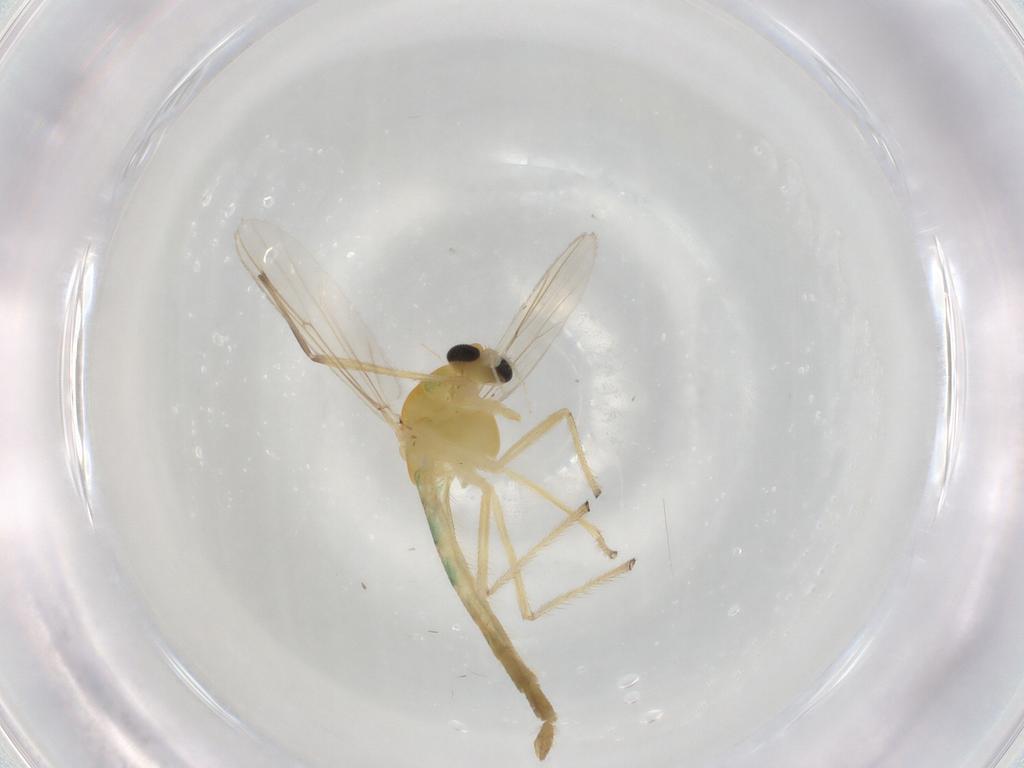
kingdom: Animalia
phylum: Arthropoda
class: Insecta
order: Diptera
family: Chironomidae
